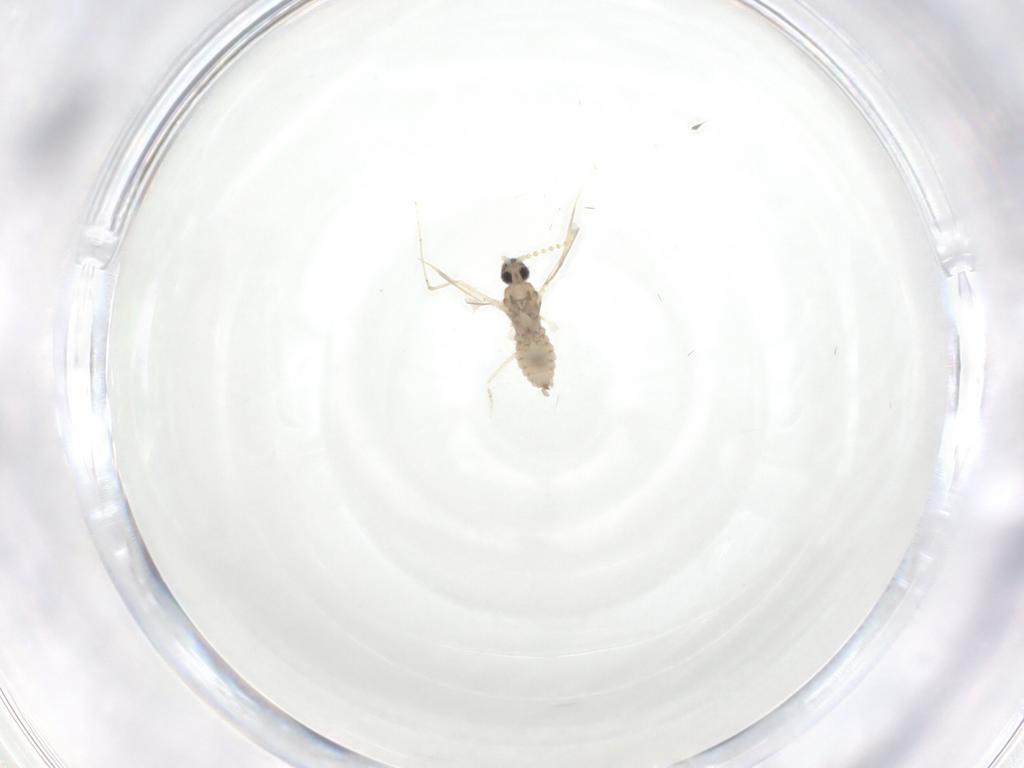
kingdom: Animalia
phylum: Arthropoda
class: Insecta
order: Diptera
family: Cecidomyiidae
